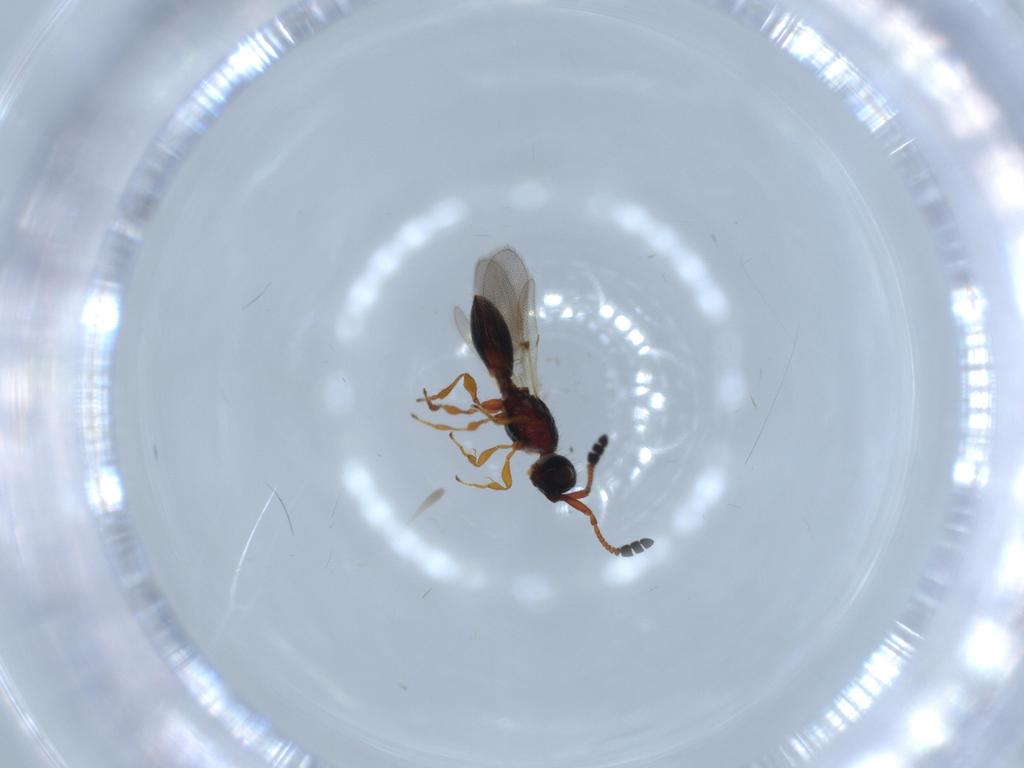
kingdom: Animalia
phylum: Arthropoda
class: Insecta
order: Hymenoptera
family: Diapriidae
